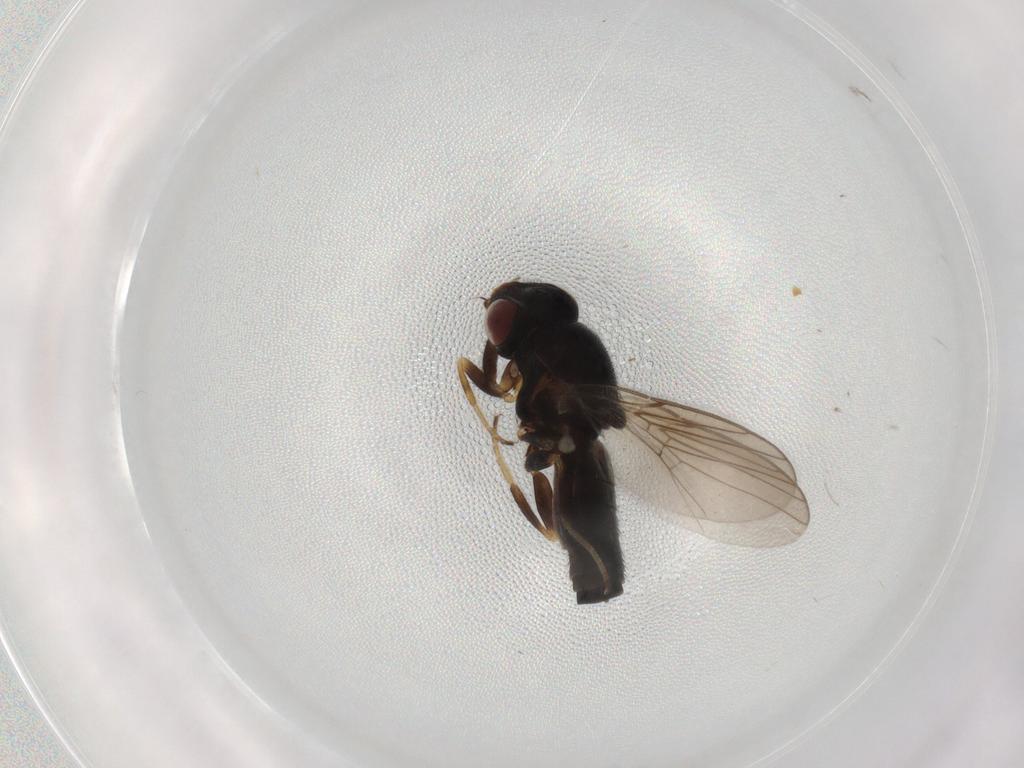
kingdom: Animalia
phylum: Arthropoda
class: Insecta
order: Diptera
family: Chloropidae
